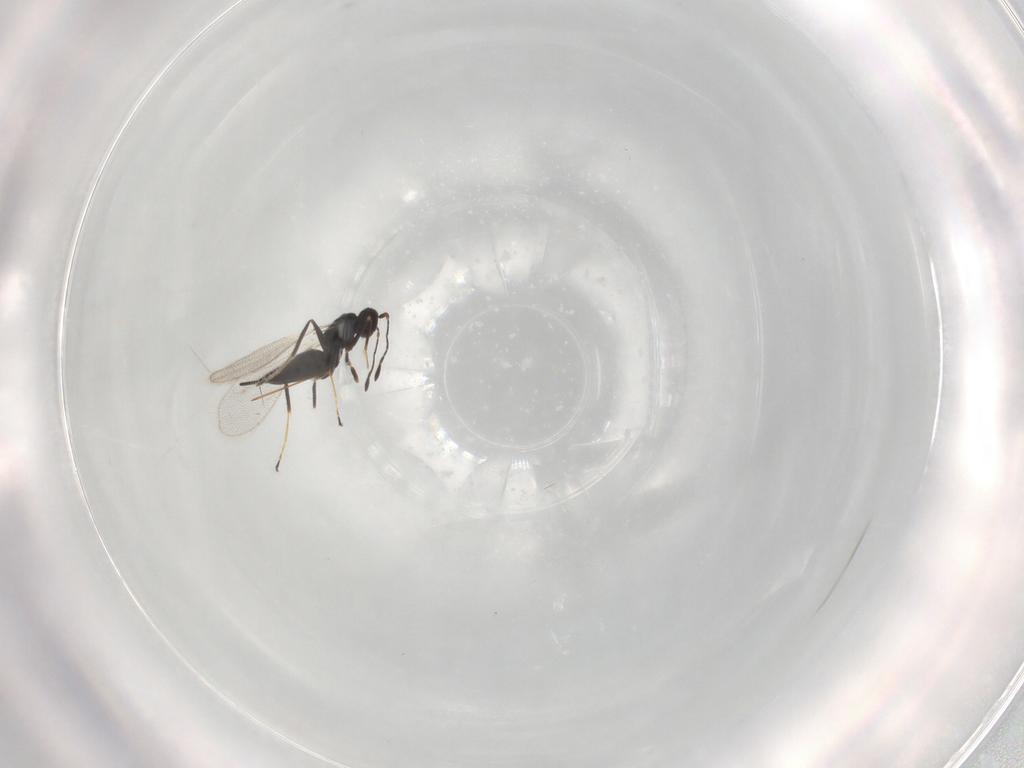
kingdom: Animalia
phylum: Arthropoda
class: Insecta
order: Hymenoptera
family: Mymaridae
